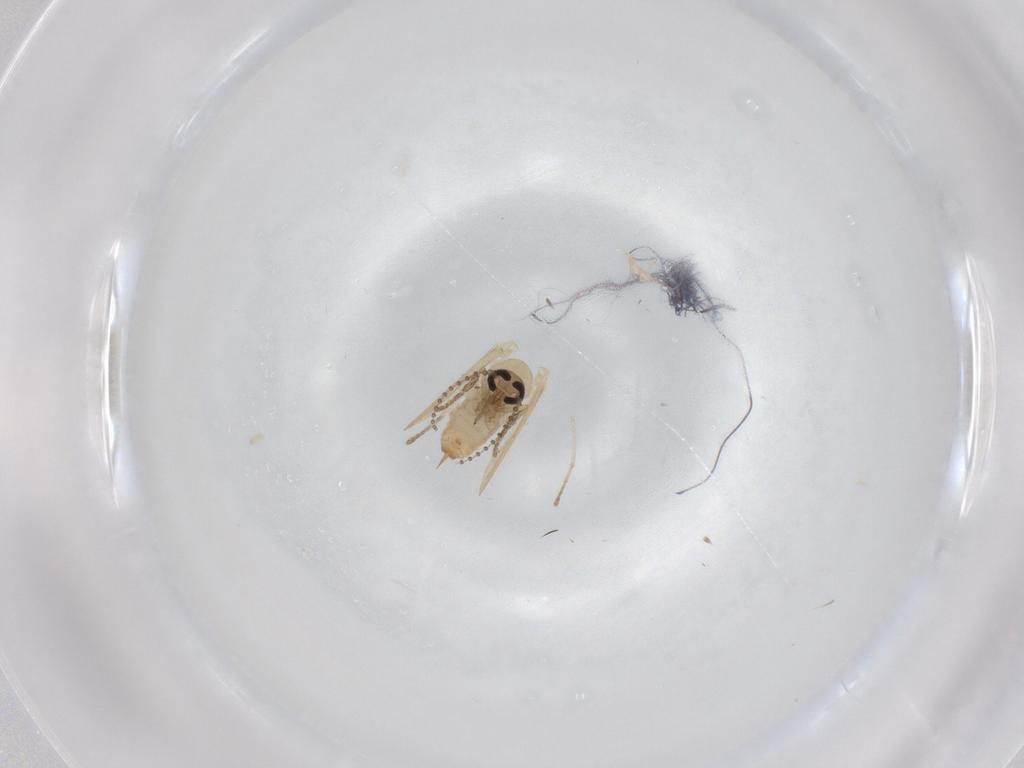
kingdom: Animalia
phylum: Arthropoda
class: Insecta
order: Diptera
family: Psychodidae
